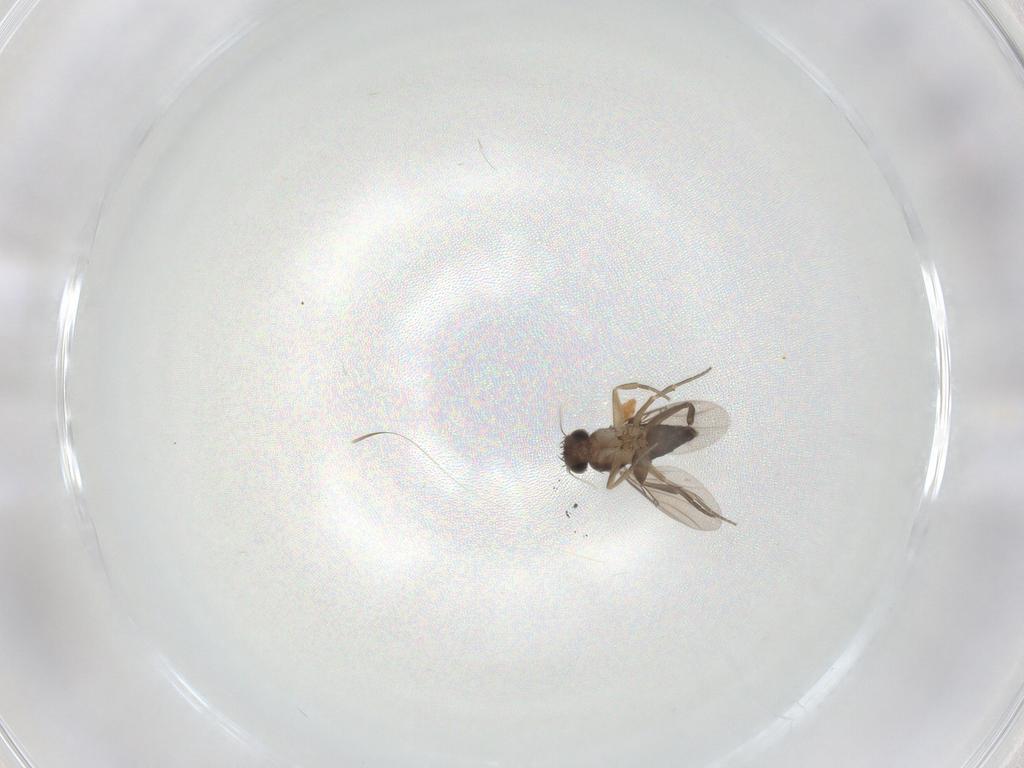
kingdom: Animalia
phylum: Arthropoda
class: Insecta
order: Diptera
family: Phoridae
